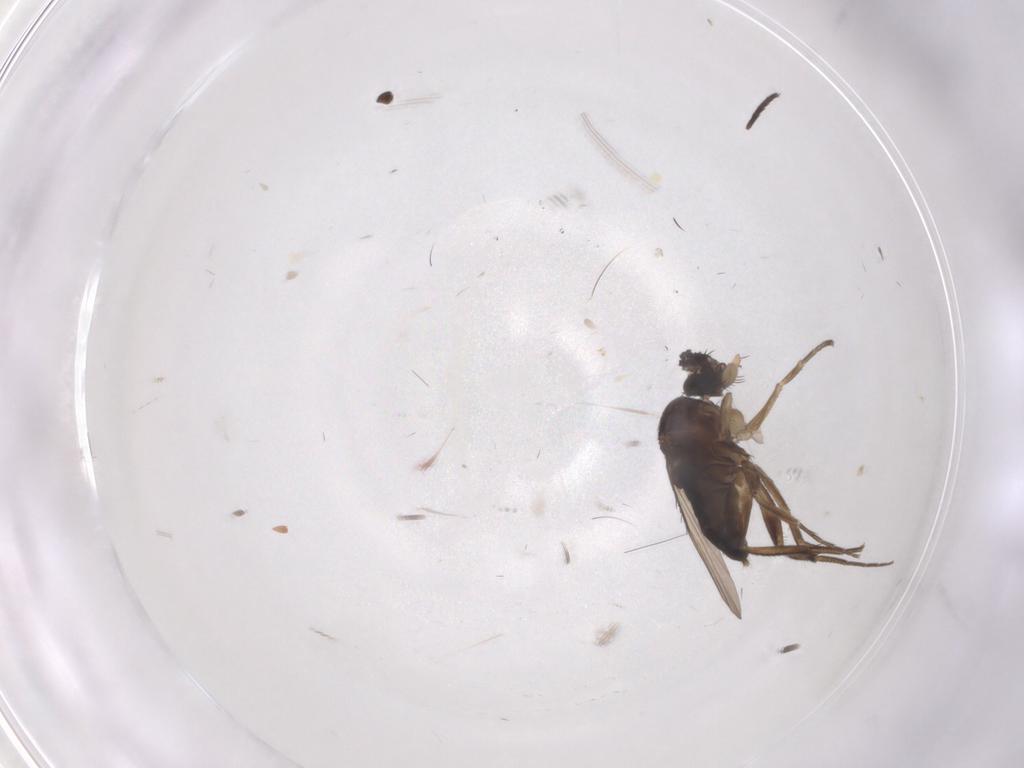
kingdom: Animalia
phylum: Arthropoda
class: Insecta
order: Diptera
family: Phoridae
